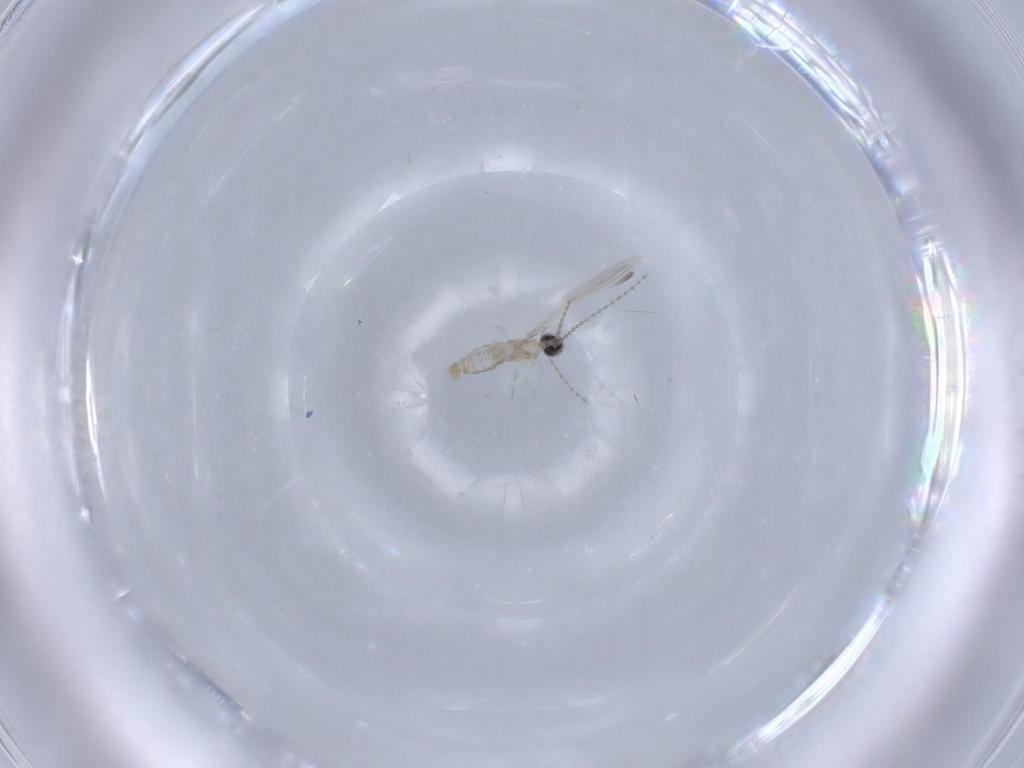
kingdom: Animalia
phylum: Arthropoda
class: Insecta
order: Diptera
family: Cecidomyiidae
